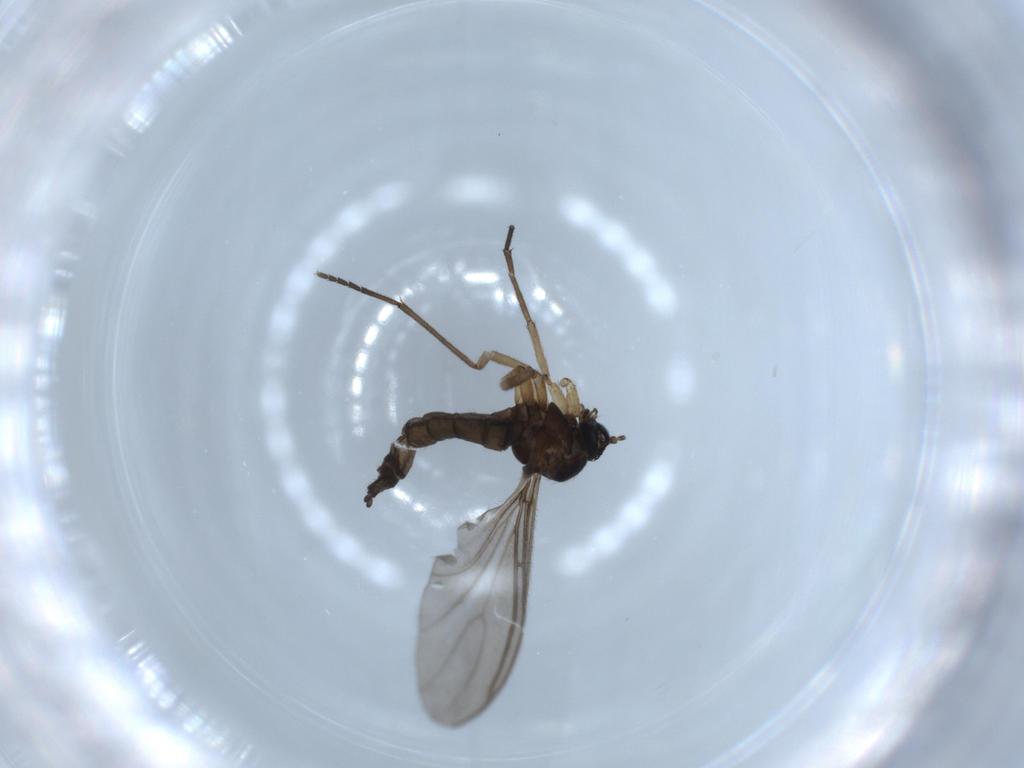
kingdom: Animalia
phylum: Arthropoda
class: Insecta
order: Diptera
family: Sciaridae
